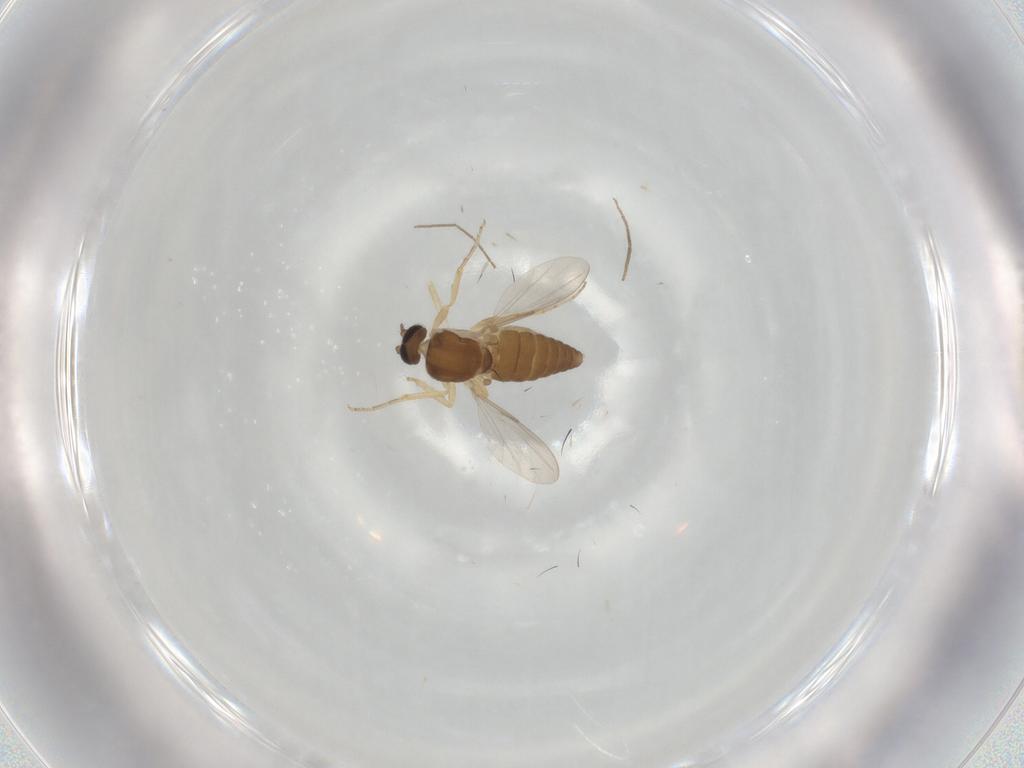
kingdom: Animalia
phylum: Arthropoda
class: Insecta
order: Diptera
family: Ceratopogonidae
